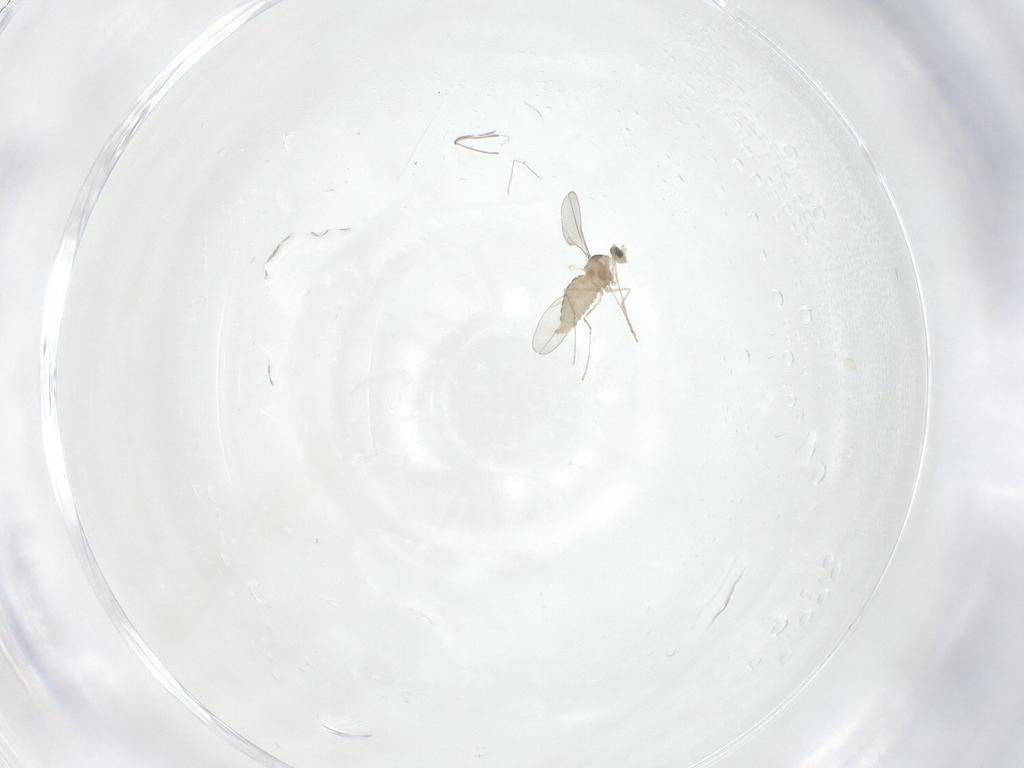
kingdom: Animalia
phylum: Arthropoda
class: Insecta
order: Diptera
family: Cecidomyiidae
